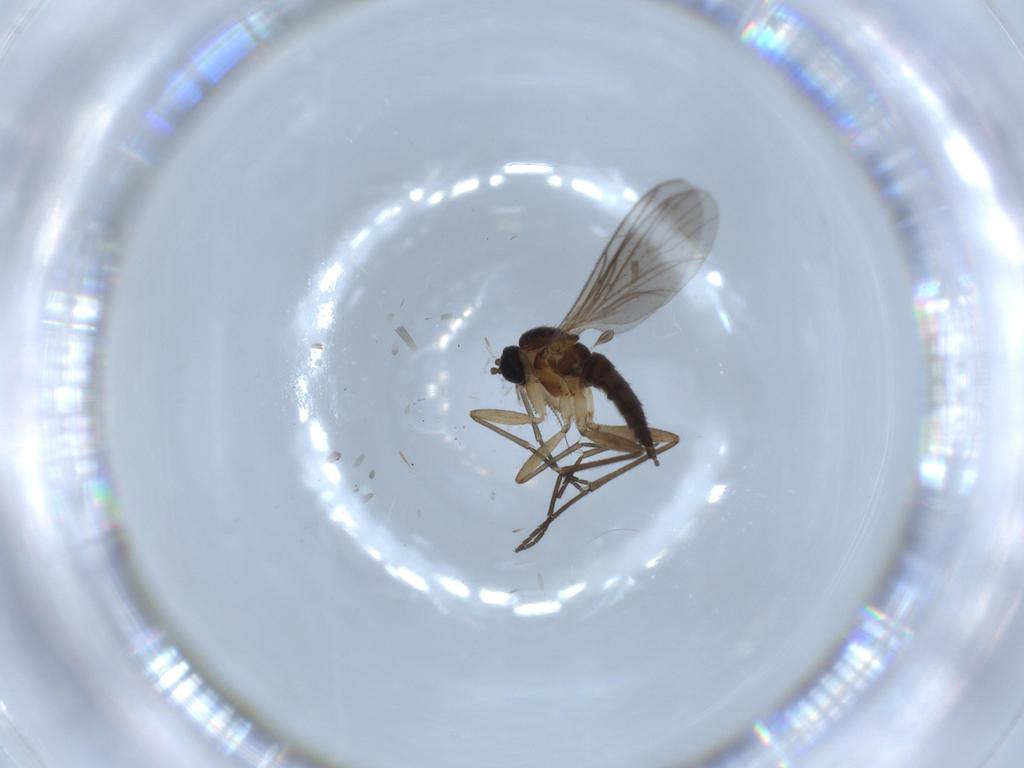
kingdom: Animalia
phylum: Arthropoda
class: Insecta
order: Diptera
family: Sciaridae
